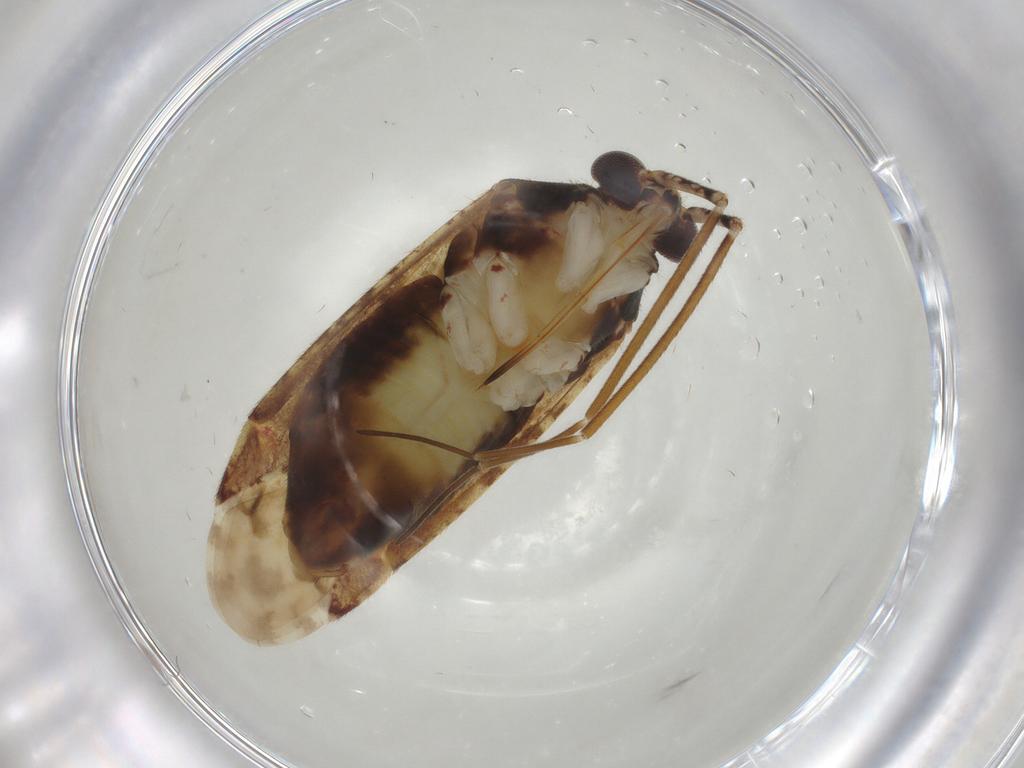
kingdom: Animalia
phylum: Arthropoda
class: Insecta
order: Hemiptera
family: Miridae
